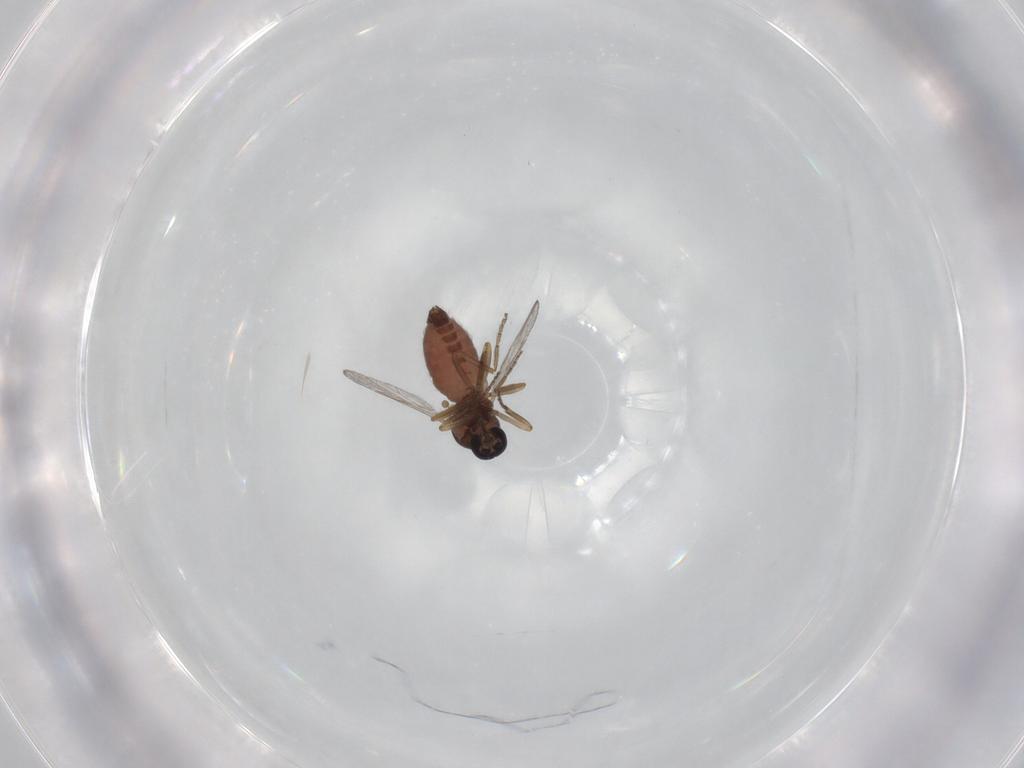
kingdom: Animalia
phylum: Arthropoda
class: Insecta
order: Diptera
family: Ceratopogonidae
